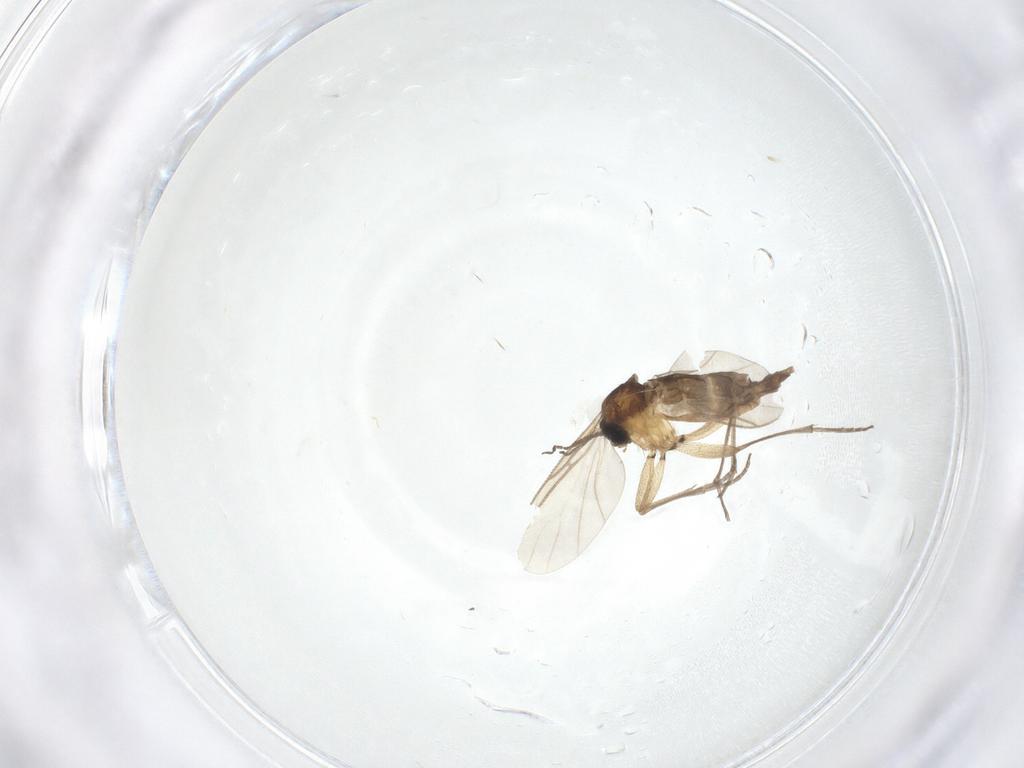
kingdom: Animalia
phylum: Arthropoda
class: Insecta
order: Diptera
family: Sciaridae
